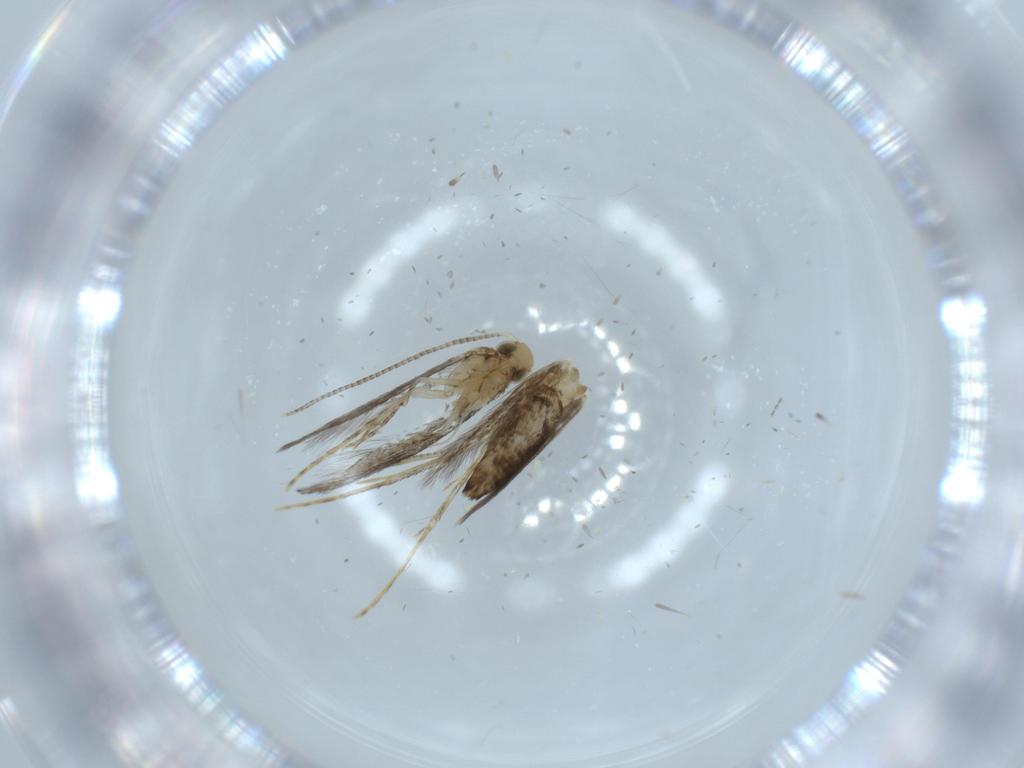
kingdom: Animalia
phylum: Arthropoda
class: Insecta
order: Lepidoptera
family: Gracillariidae
